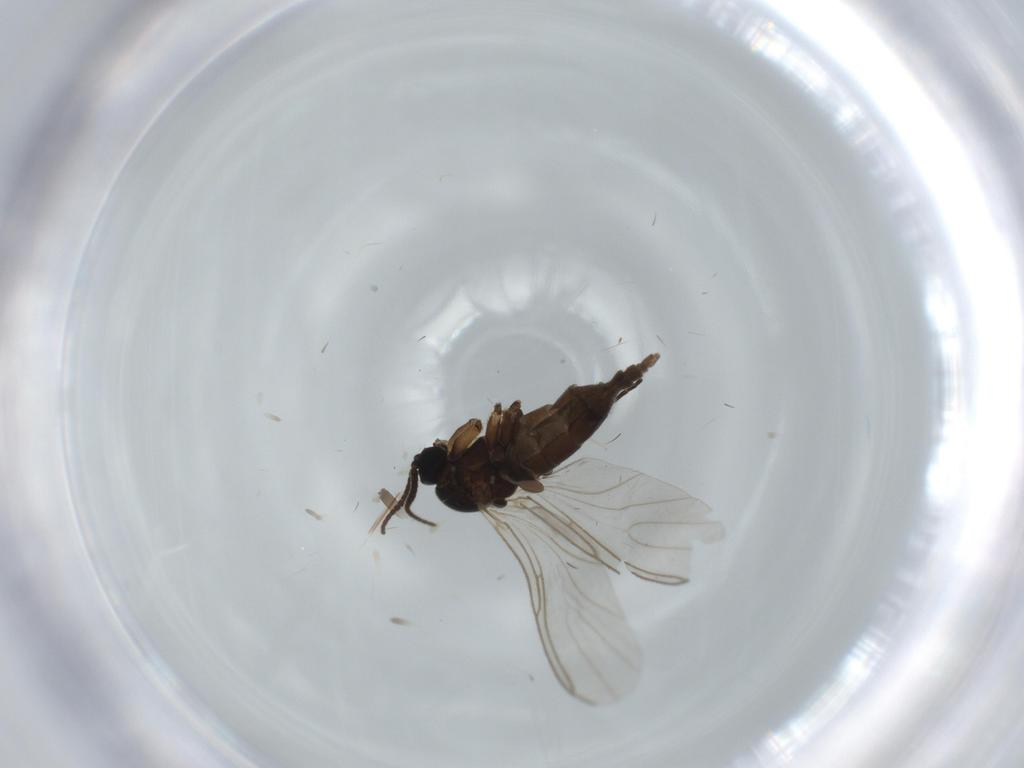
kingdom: Animalia
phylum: Arthropoda
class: Insecta
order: Diptera
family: Sciaridae
